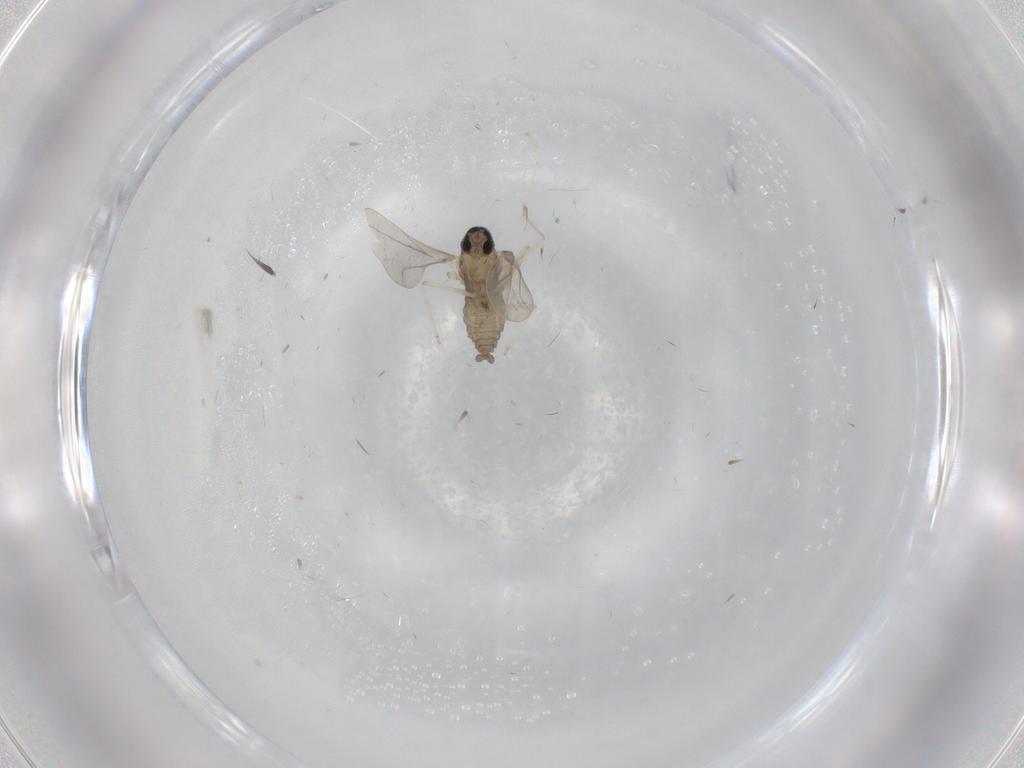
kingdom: Animalia
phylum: Arthropoda
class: Insecta
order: Diptera
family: Cecidomyiidae
